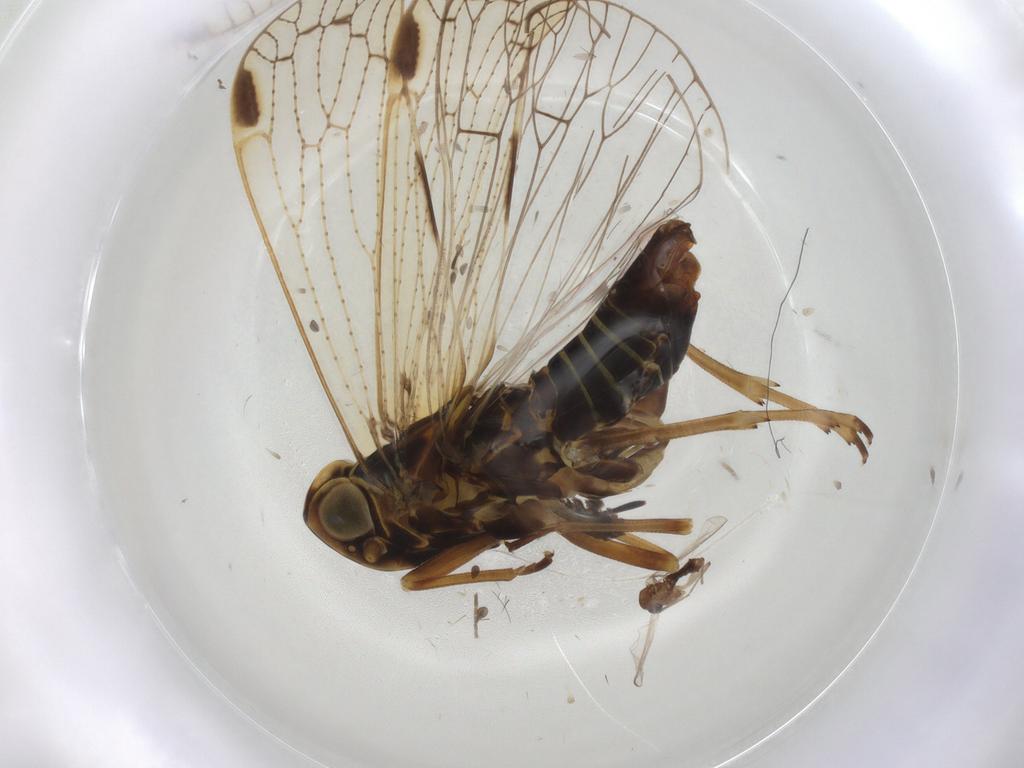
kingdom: Animalia
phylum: Arthropoda
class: Insecta
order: Hemiptera
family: Cixiidae
